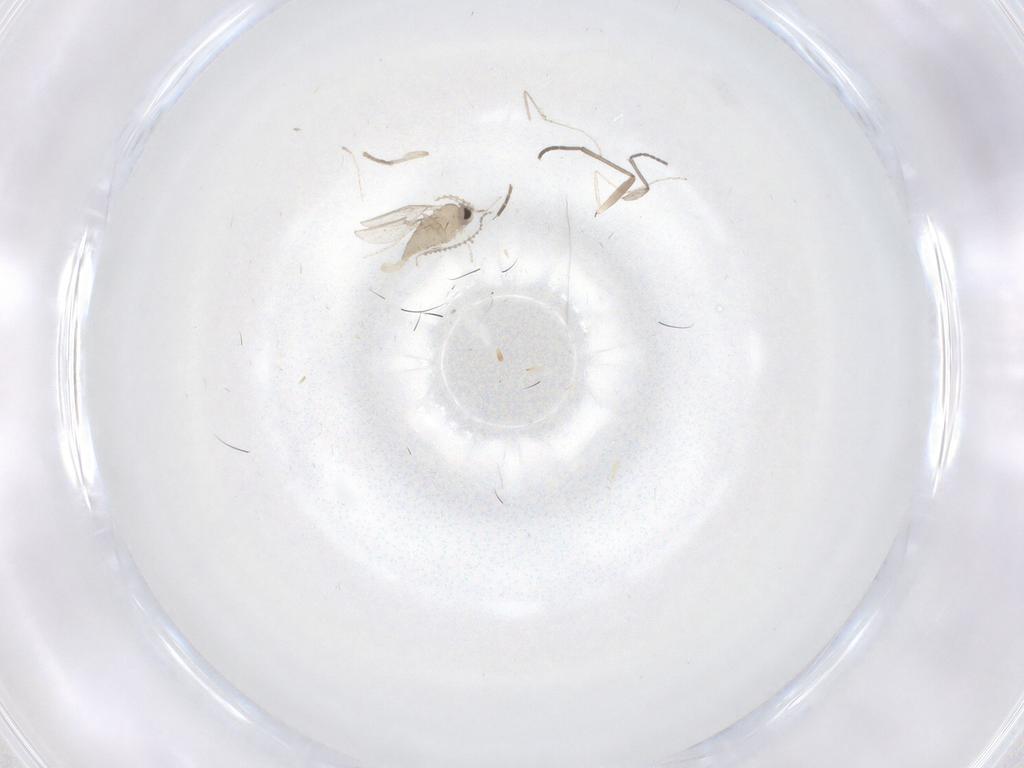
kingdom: Animalia
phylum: Arthropoda
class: Insecta
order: Diptera
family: Cecidomyiidae
